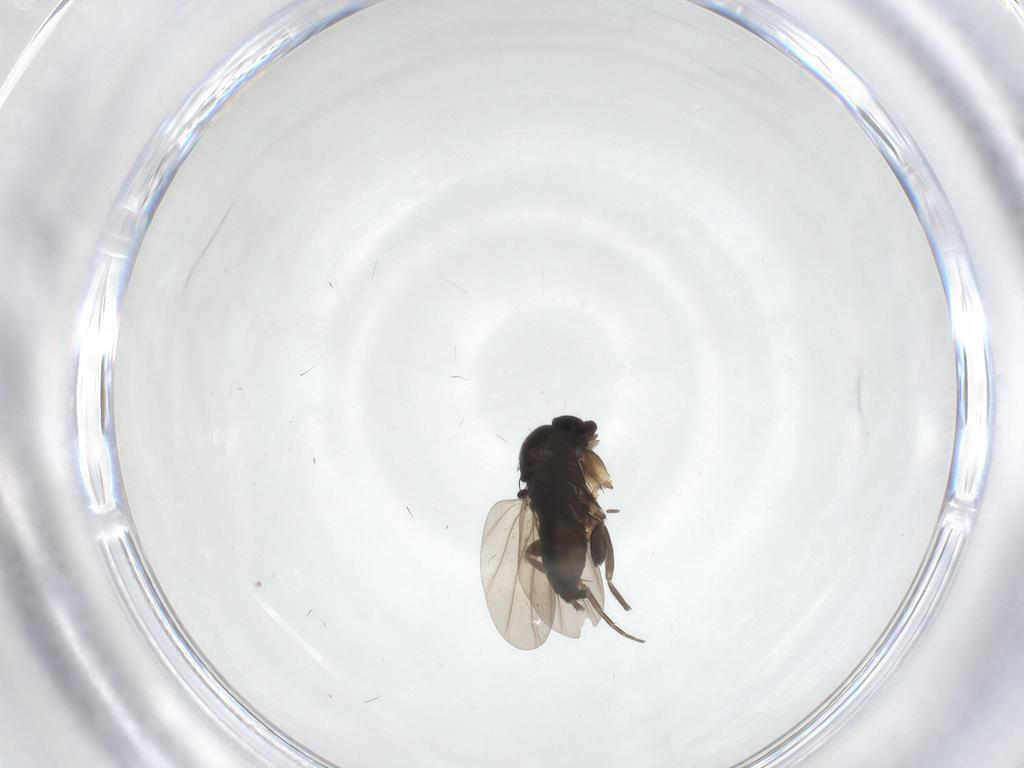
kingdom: Animalia
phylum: Arthropoda
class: Insecta
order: Diptera
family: Phoridae
